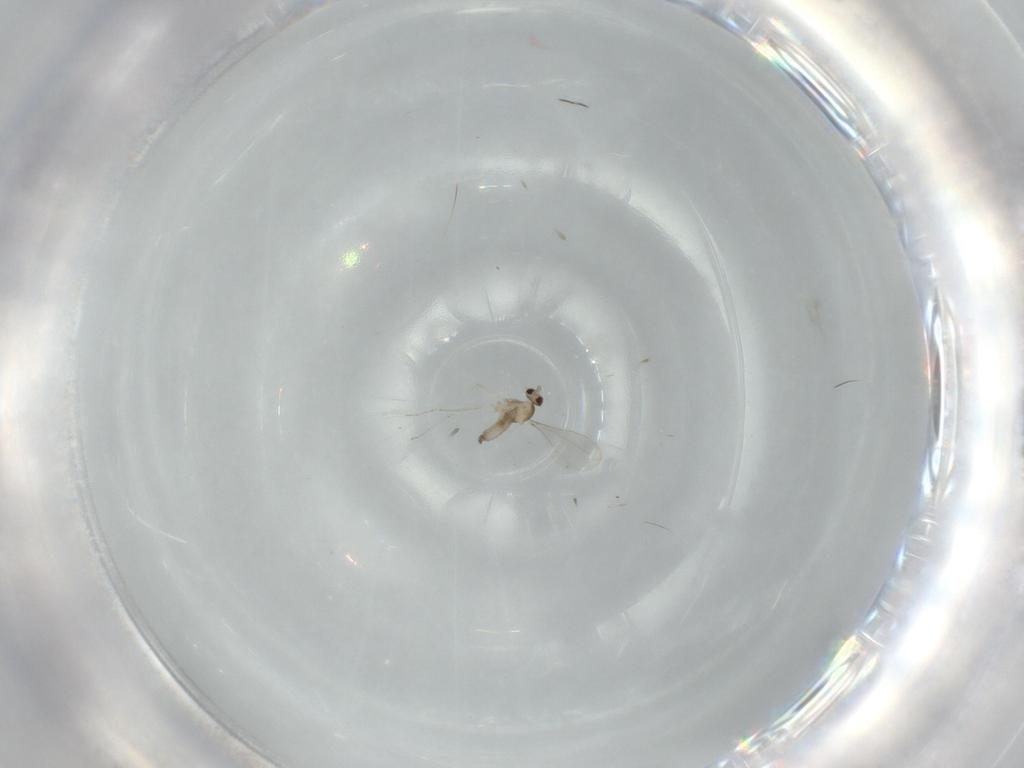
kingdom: Animalia
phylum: Arthropoda
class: Insecta
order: Diptera
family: Cecidomyiidae
